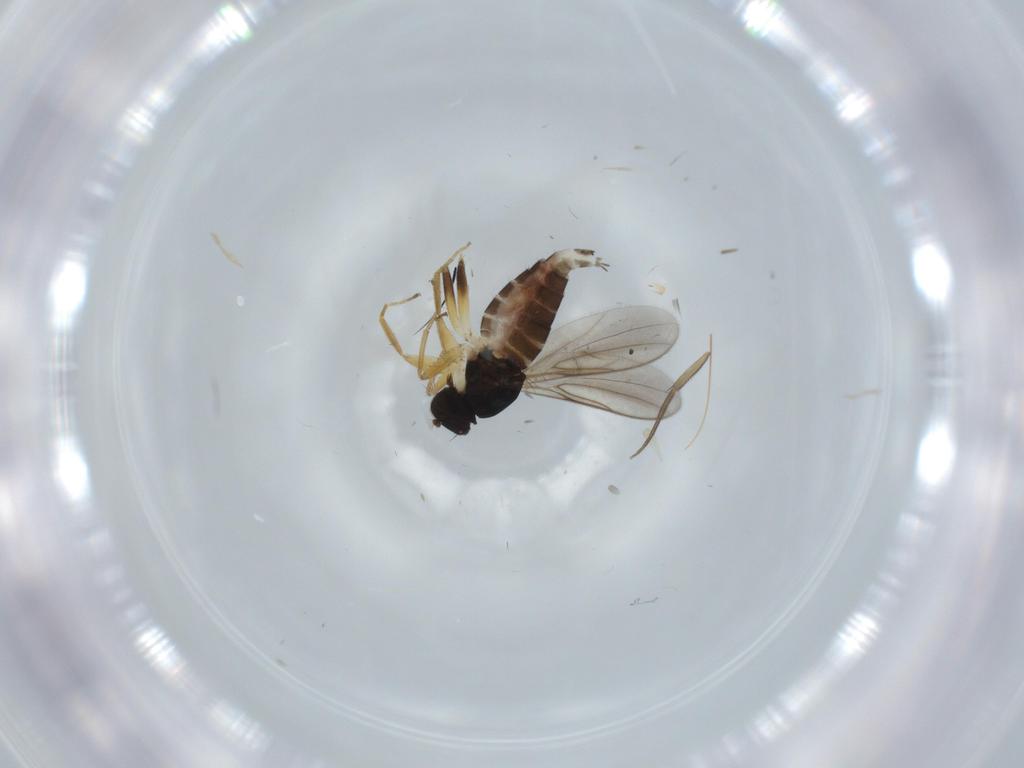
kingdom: Animalia
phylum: Arthropoda
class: Insecta
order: Diptera
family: Hybotidae
